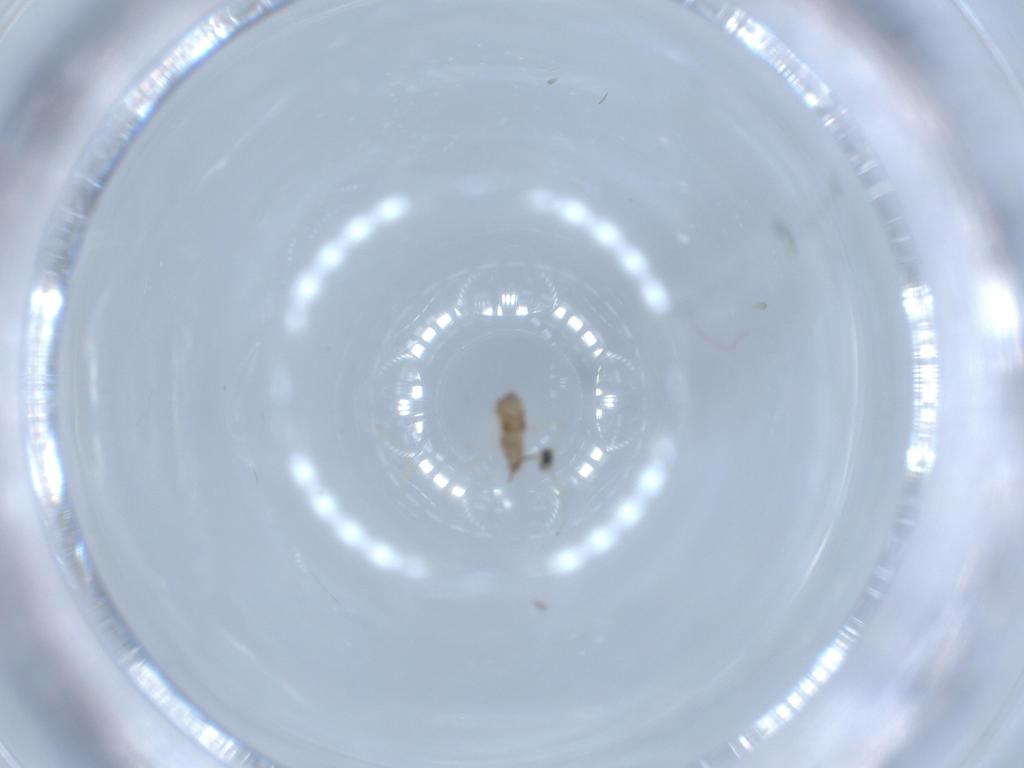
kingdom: Animalia
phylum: Arthropoda
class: Insecta
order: Diptera
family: Cecidomyiidae
